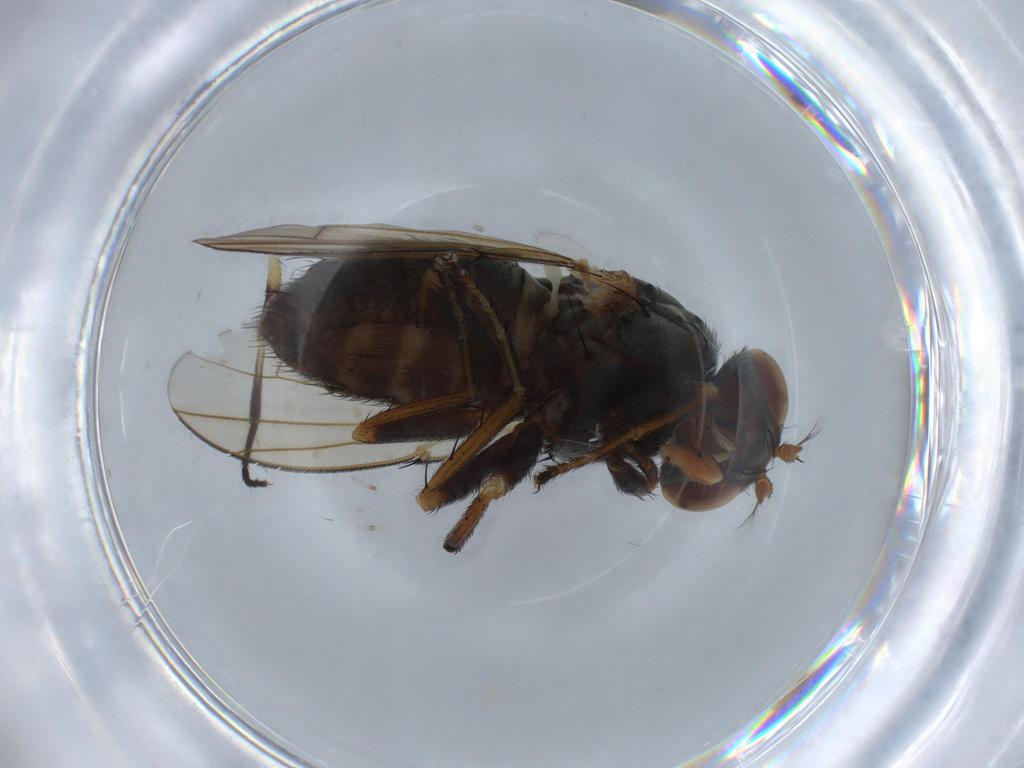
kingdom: Animalia
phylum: Arthropoda
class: Insecta
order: Diptera
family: Ephydridae
